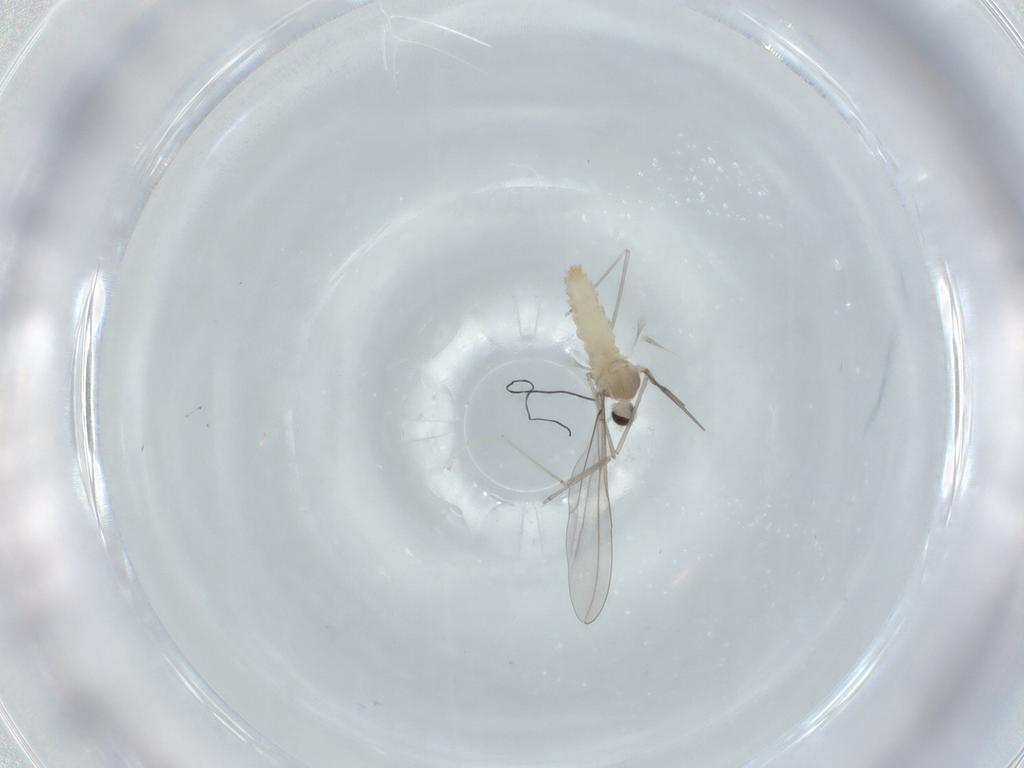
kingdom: Animalia
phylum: Arthropoda
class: Insecta
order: Diptera
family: Cecidomyiidae
